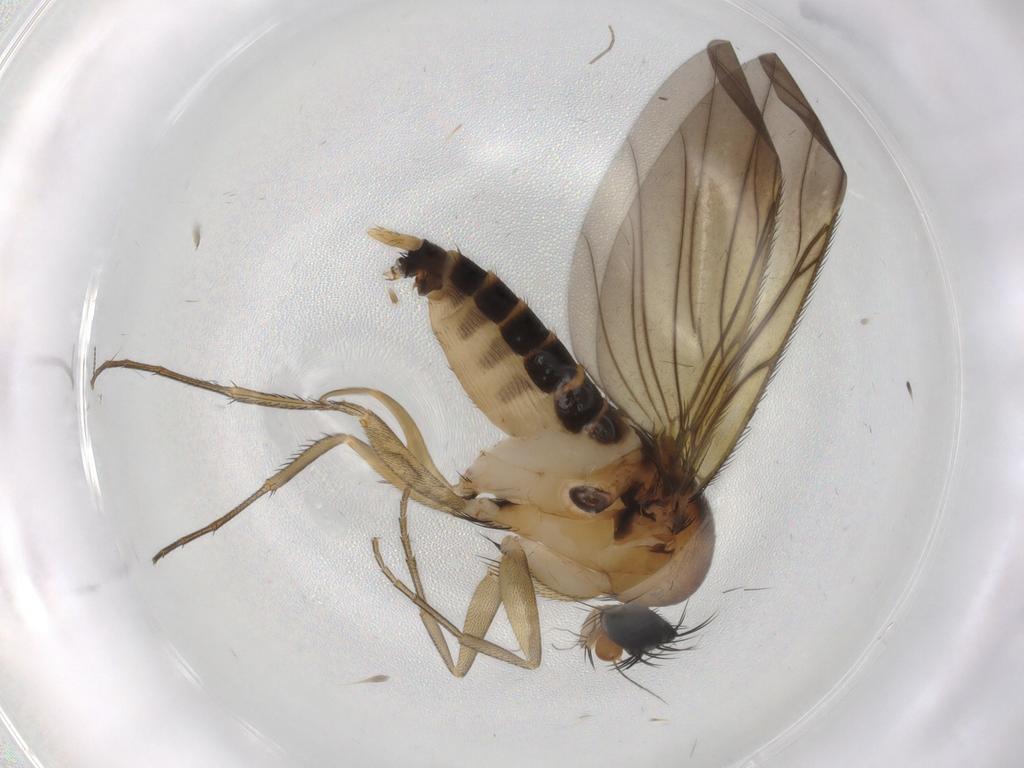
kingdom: Animalia
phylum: Arthropoda
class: Insecta
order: Diptera
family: Phoridae
